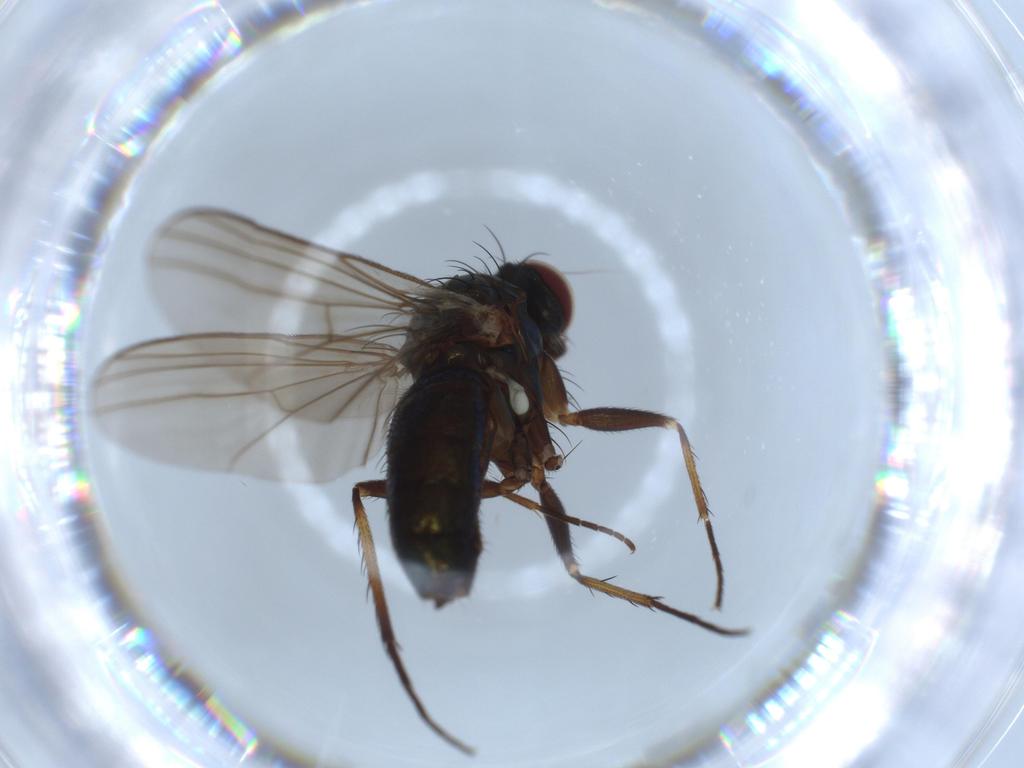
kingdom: Animalia
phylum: Arthropoda
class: Insecta
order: Diptera
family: Dolichopodidae
